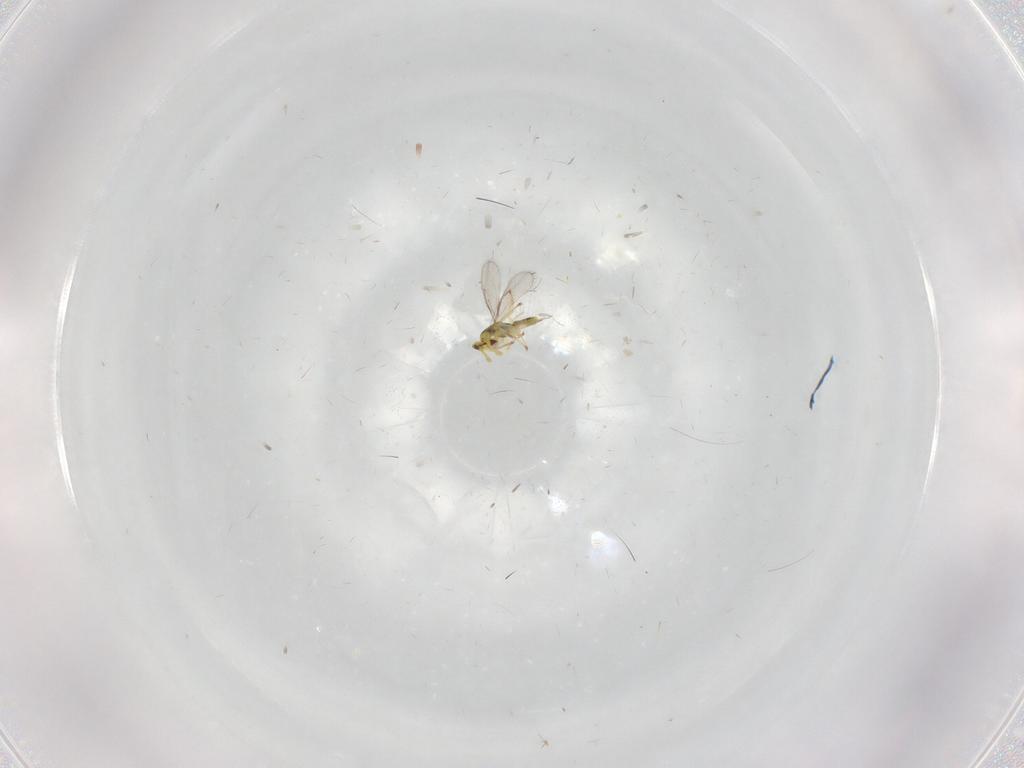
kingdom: Animalia
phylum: Arthropoda
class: Insecta
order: Hymenoptera
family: Eulophidae
